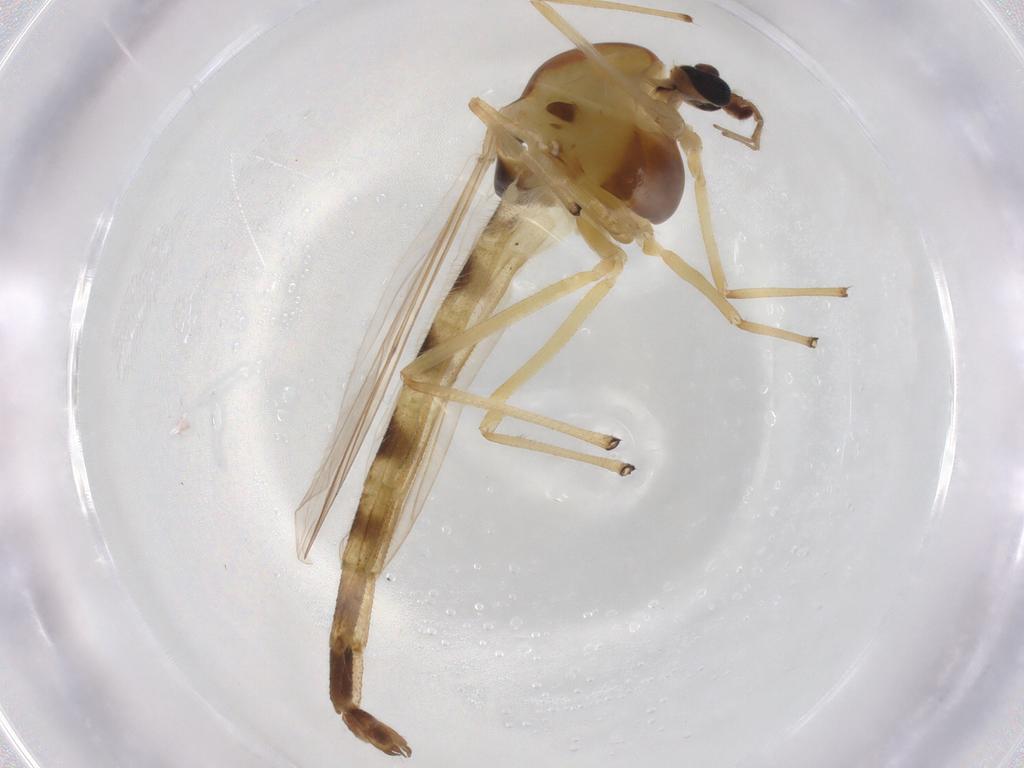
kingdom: Animalia
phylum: Arthropoda
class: Insecta
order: Diptera
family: Chironomidae
